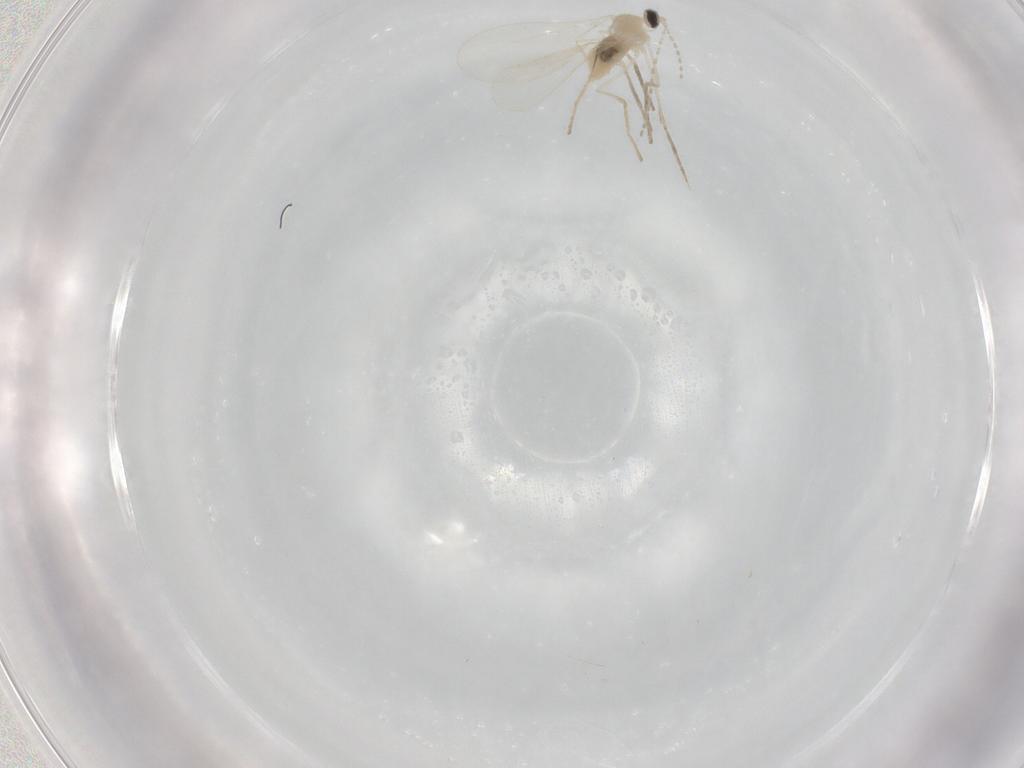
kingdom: Animalia
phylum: Arthropoda
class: Insecta
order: Diptera
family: Cecidomyiidae
